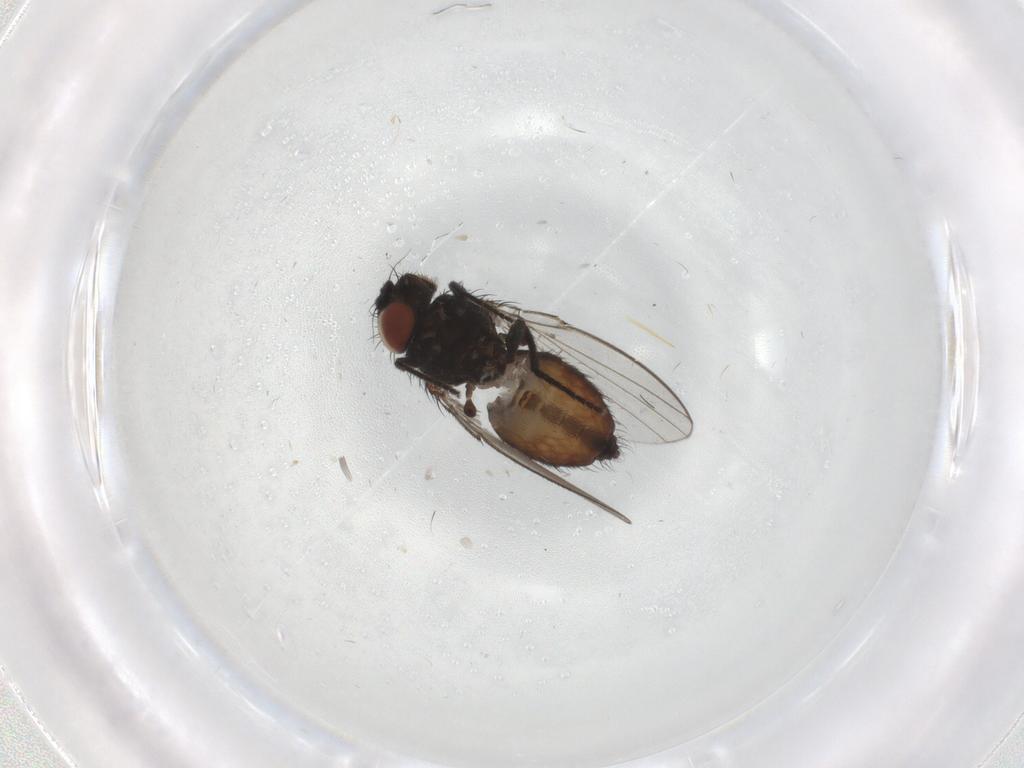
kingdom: Animalia
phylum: Arthropoda
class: Insecta
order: Diptera
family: Milichiidae
